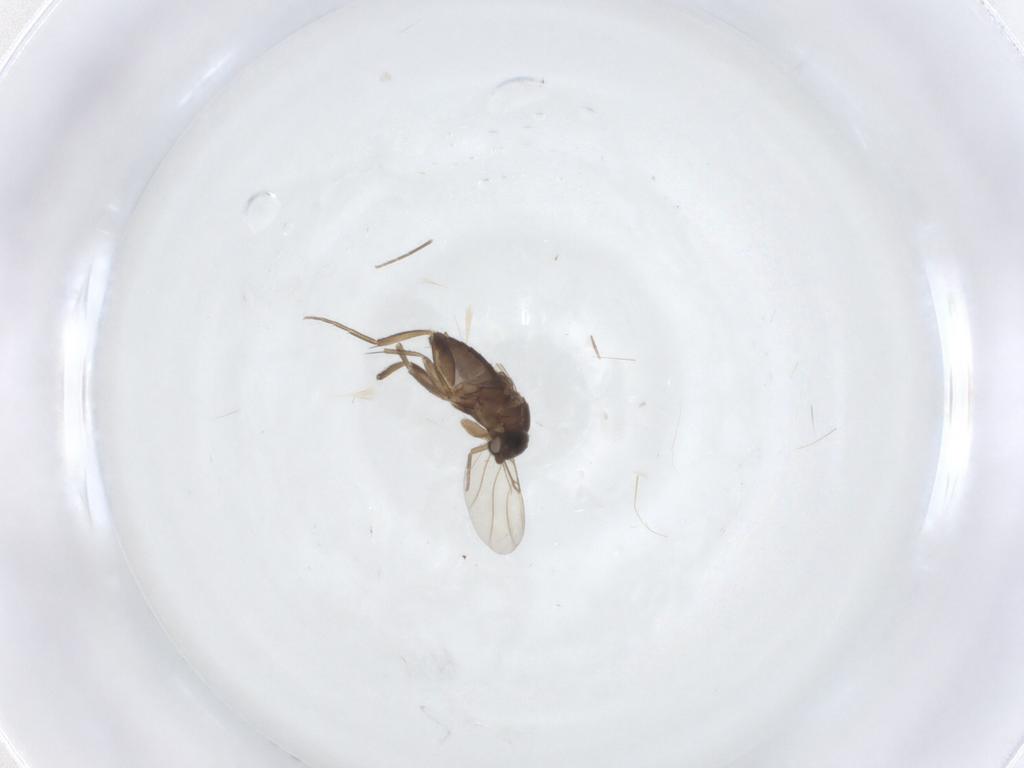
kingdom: Animalia
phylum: Arthropoda
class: Insecta
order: Diptera
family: Phoridae
